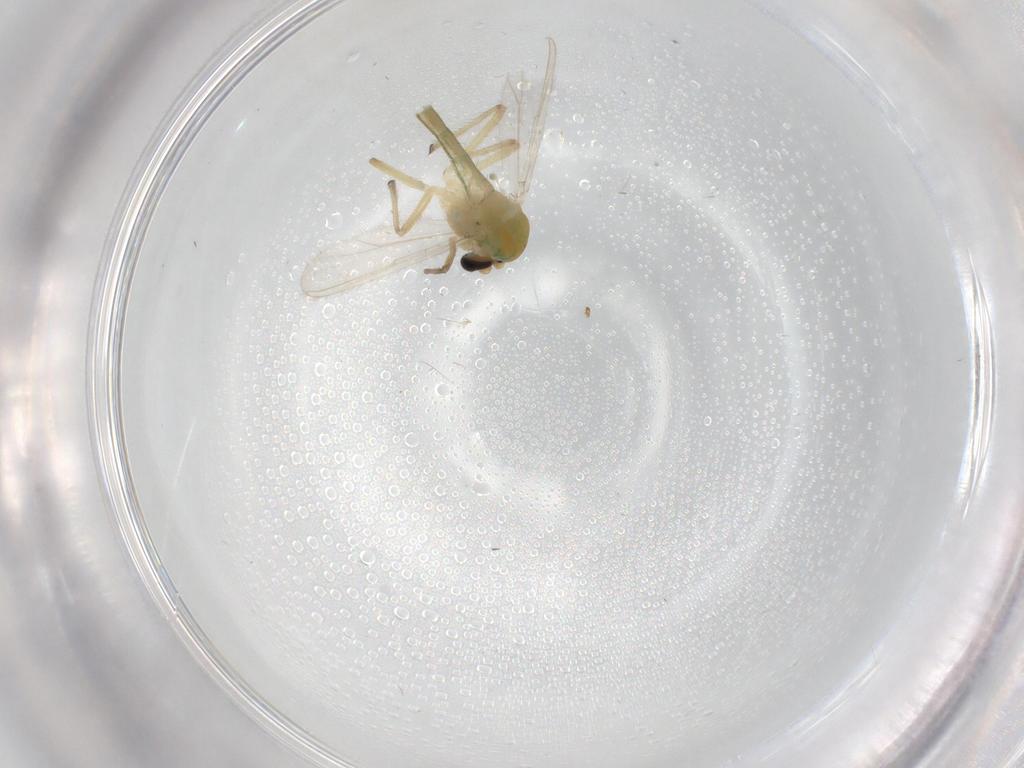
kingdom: Animalia
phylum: Arthropoda
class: Insecta
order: Diptera
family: Chironomidae
